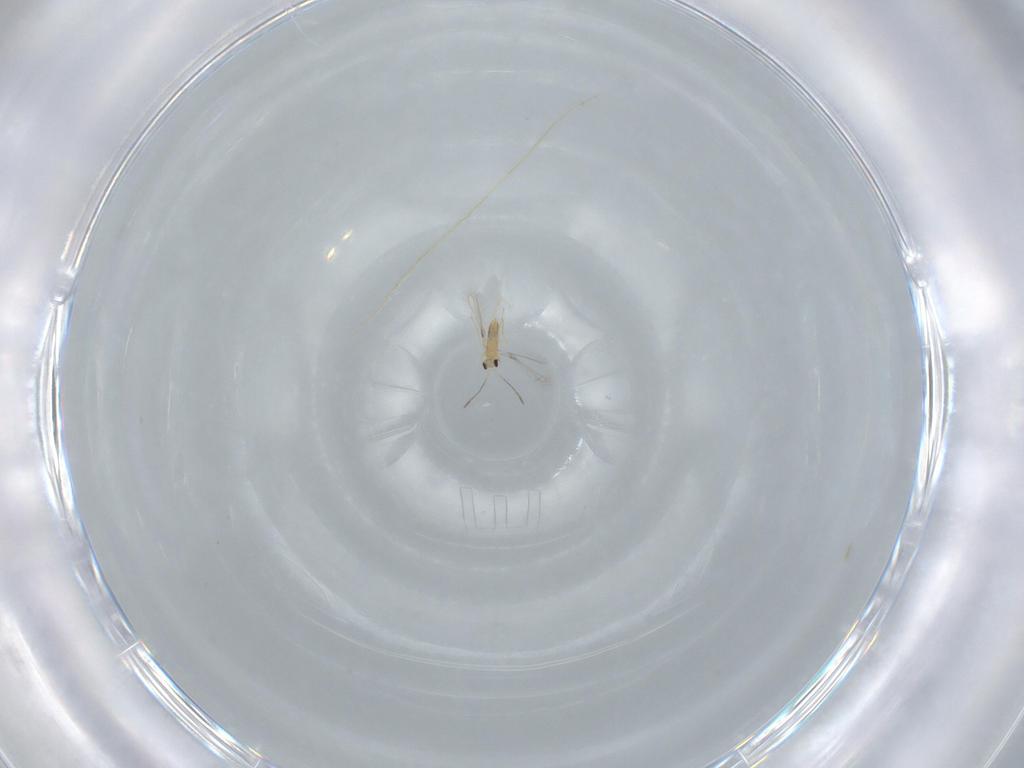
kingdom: Animalia
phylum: Arthropoda
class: Insecta
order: Hymenoptera
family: Mymaridae
